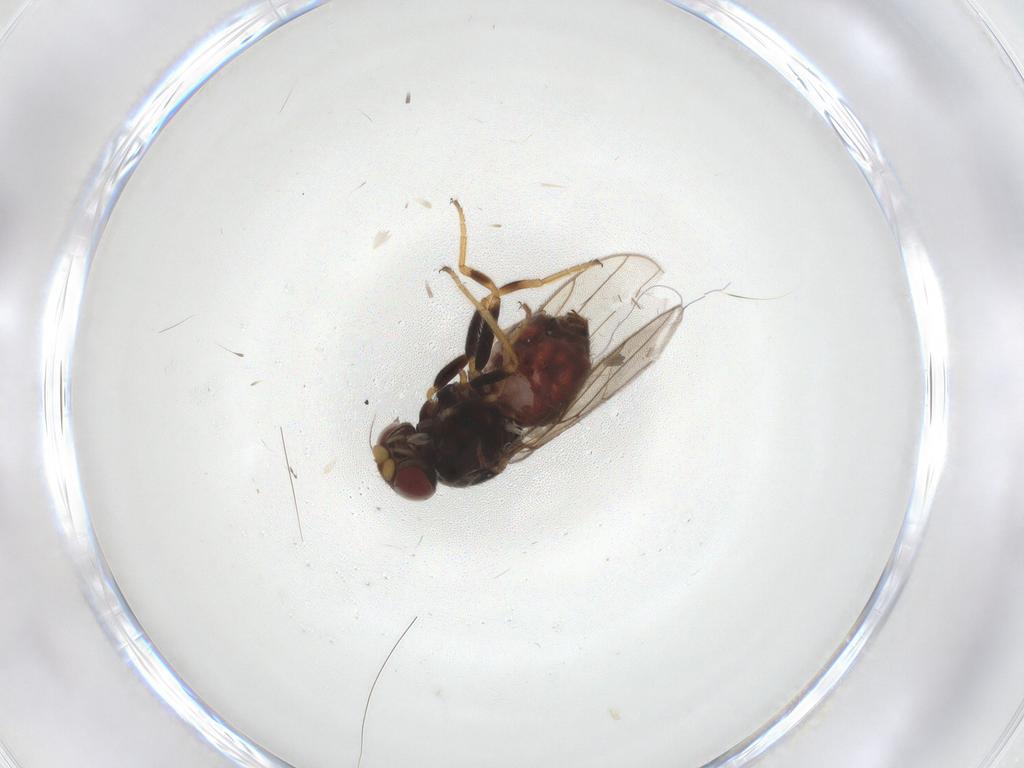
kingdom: Animalia
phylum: Arthropoda
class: Insecta
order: Diptera
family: Chloropidae
